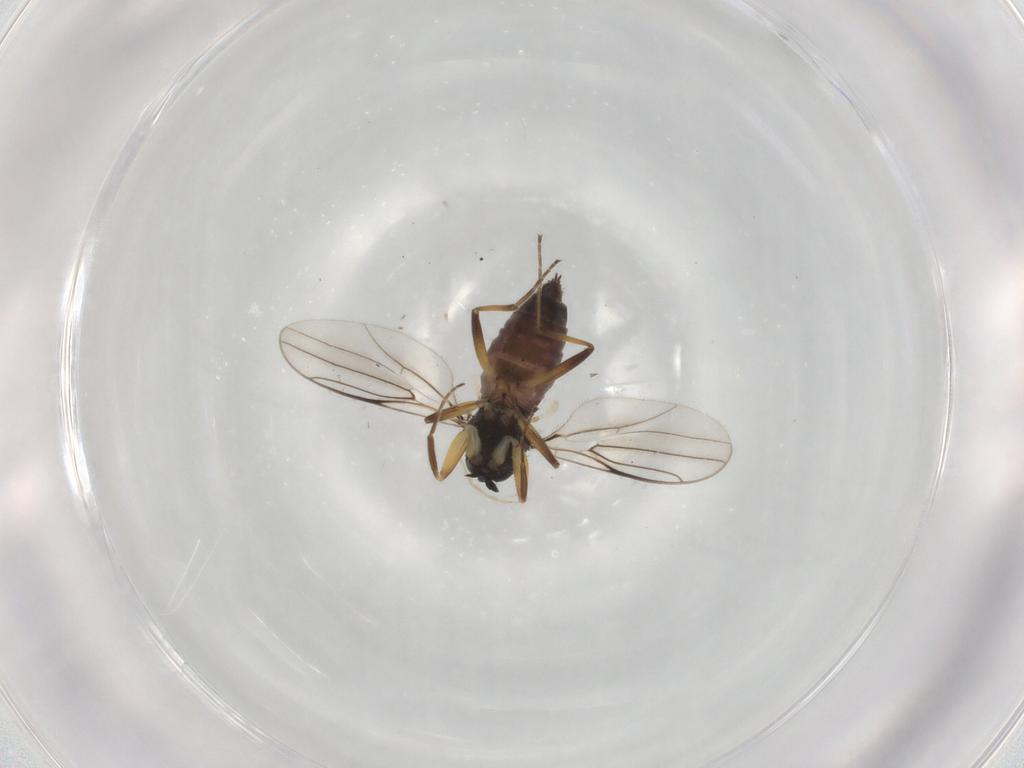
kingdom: Animalia
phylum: Arthropoda
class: Insecta
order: Diptera
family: Hybotidae
